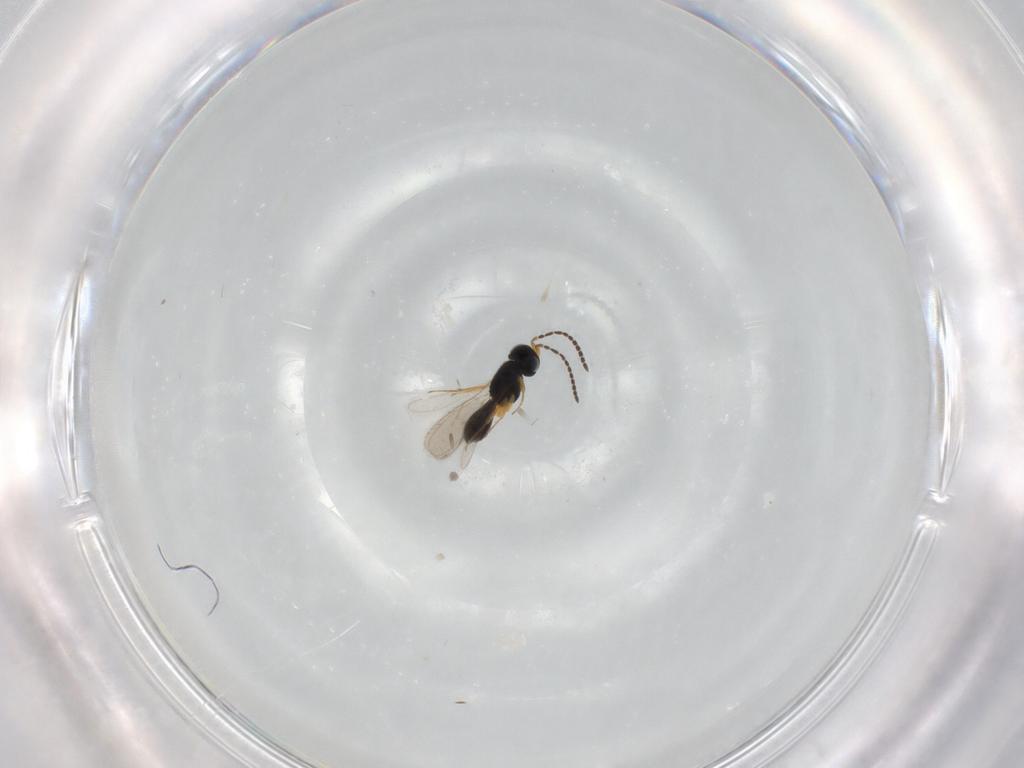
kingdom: Animalia
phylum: Arthropoda
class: Insecta
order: Hymenoptera
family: Scelionidae
